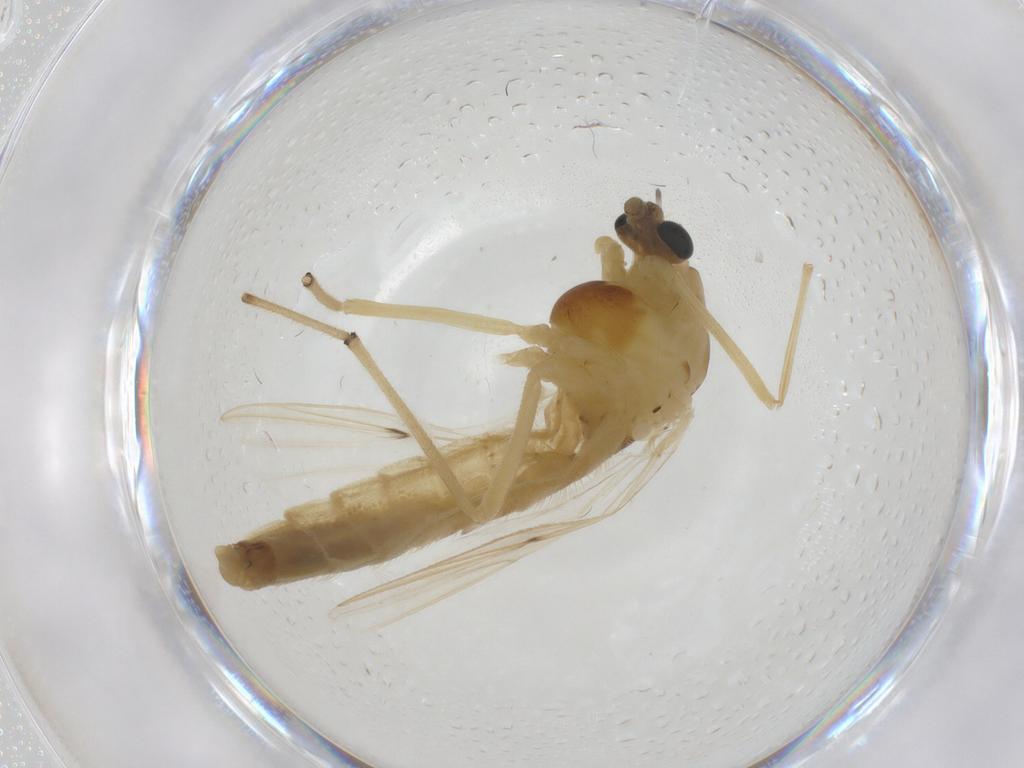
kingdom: Animalia
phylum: Arthropoda
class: Insecta
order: Diptera
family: Chironomidae
